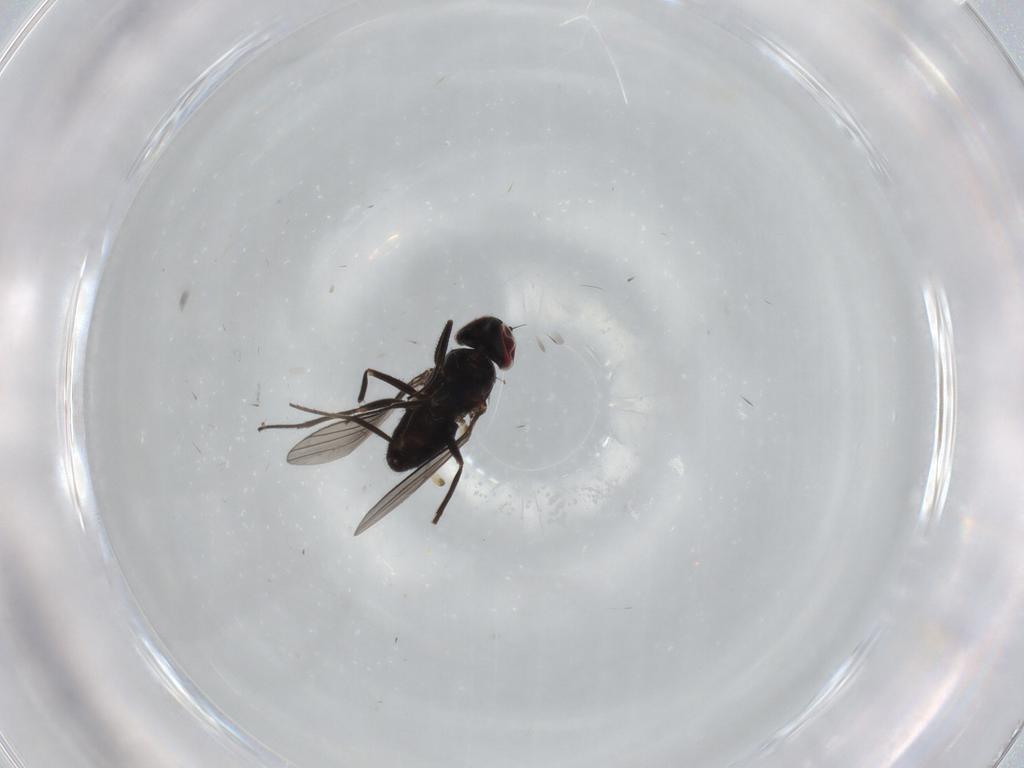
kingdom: Animalia
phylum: Arthropoda
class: Insecta
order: Diptera
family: Dolichopodidae
